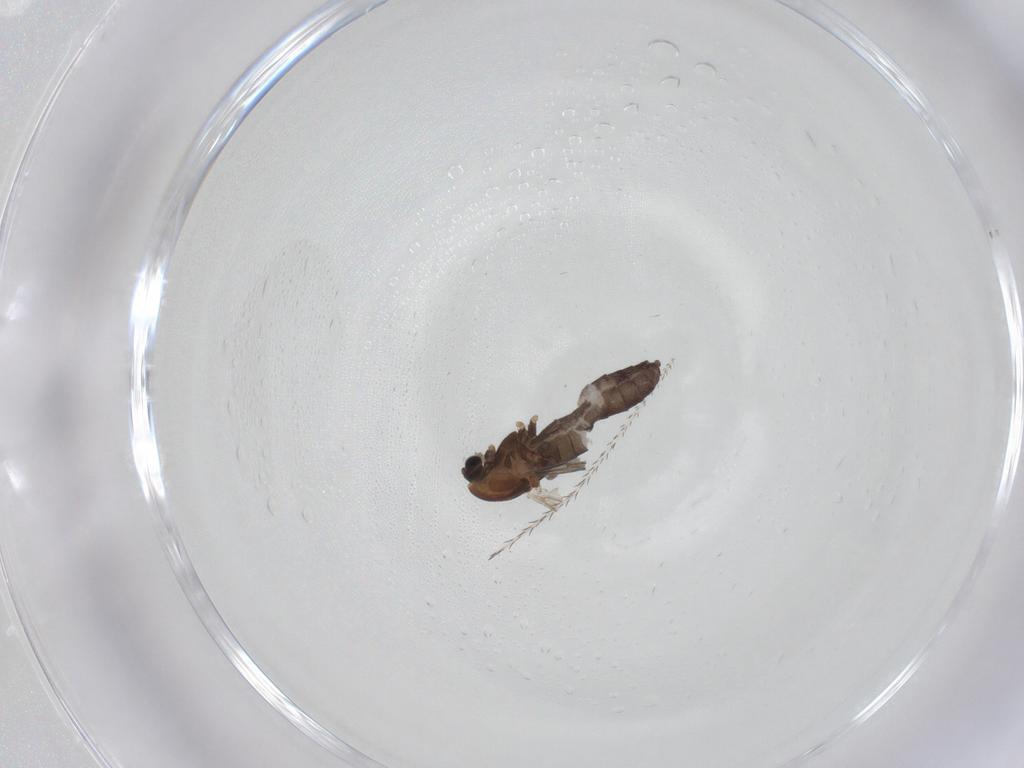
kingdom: Animalia
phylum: Arthropoda
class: Insecta
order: Diptera
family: Chironomidae
